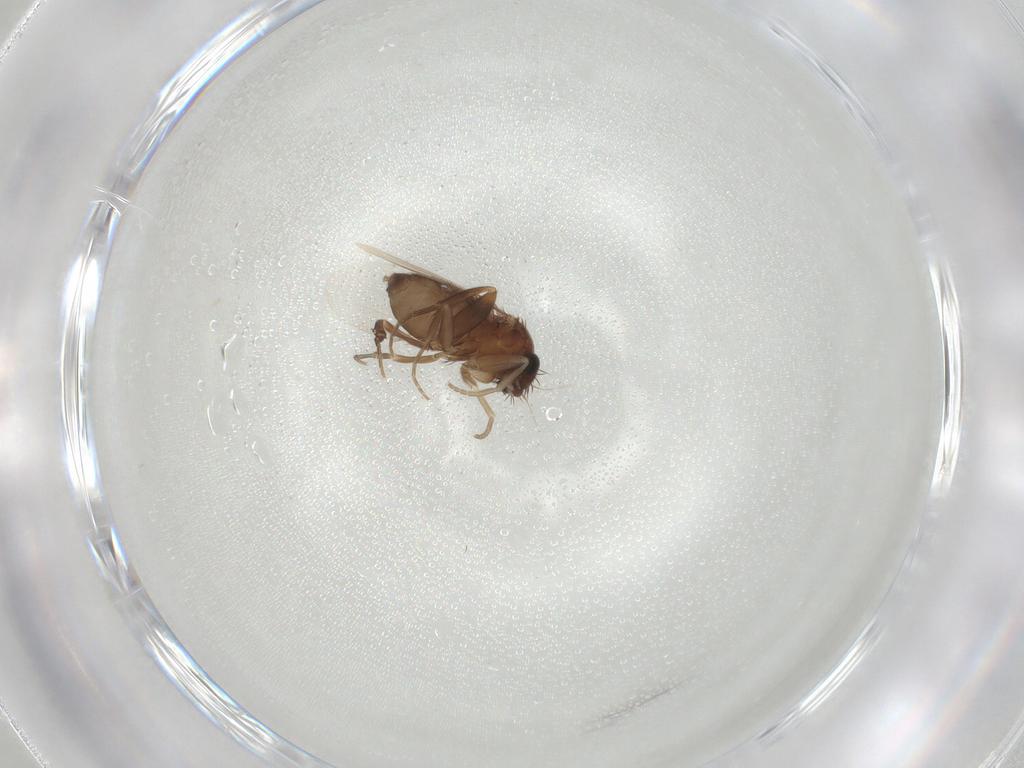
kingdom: Animalia
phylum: Arthropoda
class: Insecta
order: Diptera
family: Phoridae
